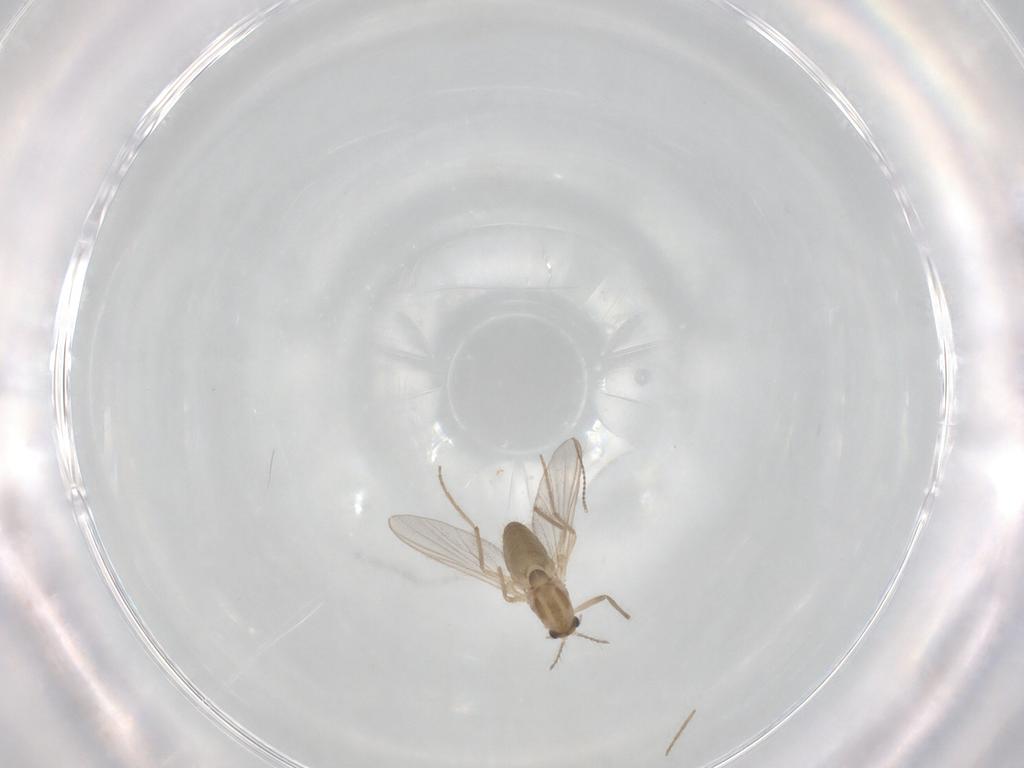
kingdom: Animalia
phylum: Arthropoda
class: Insecta
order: Diptera
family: Chironomidae
